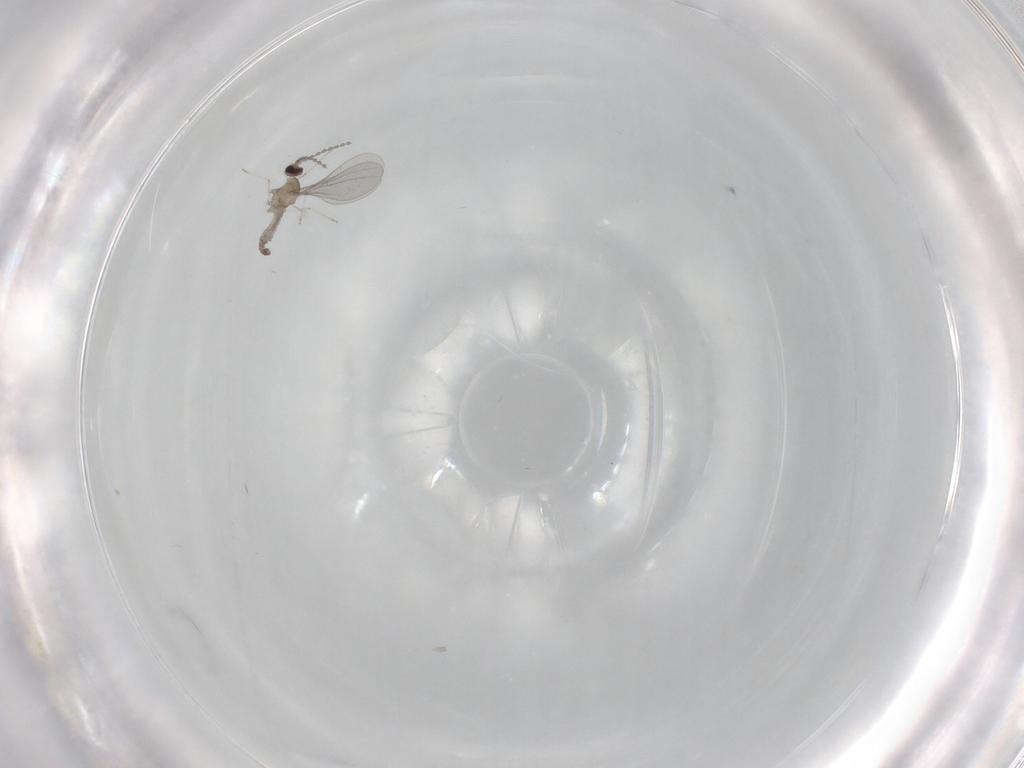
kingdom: Animalia
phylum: Arthropoda
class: Insecta
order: Diptera
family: Cecidomyiidae
